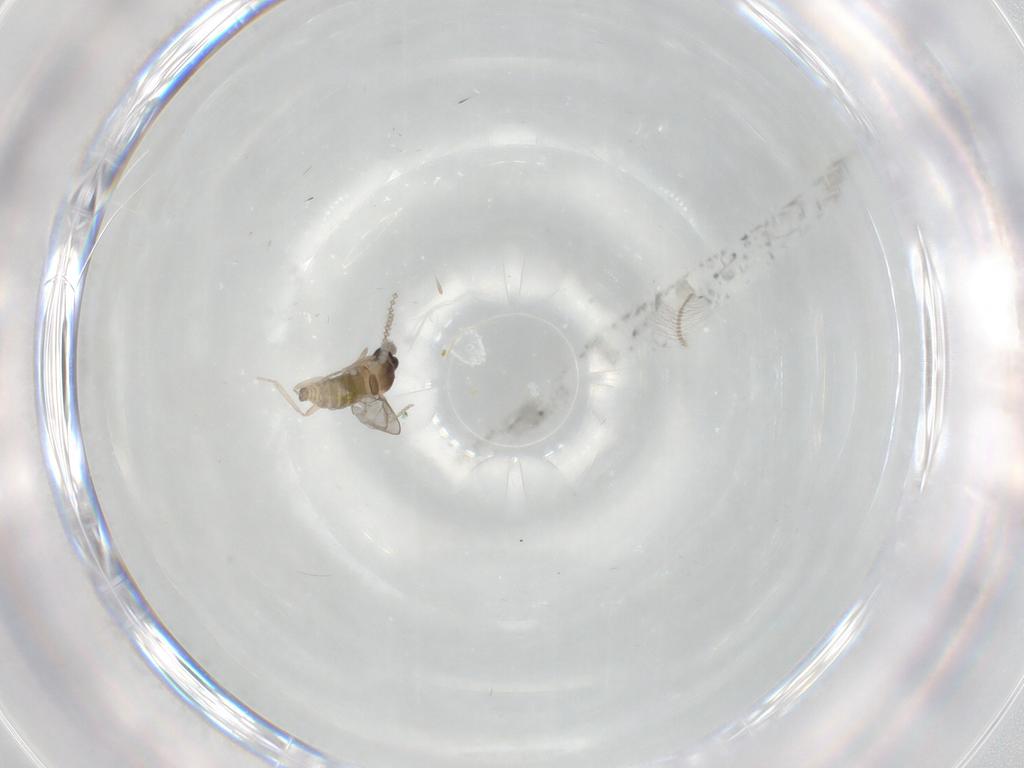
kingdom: Animalia
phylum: Arthropoda
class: Insecta
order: Diptera
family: Cecidomyiidae
